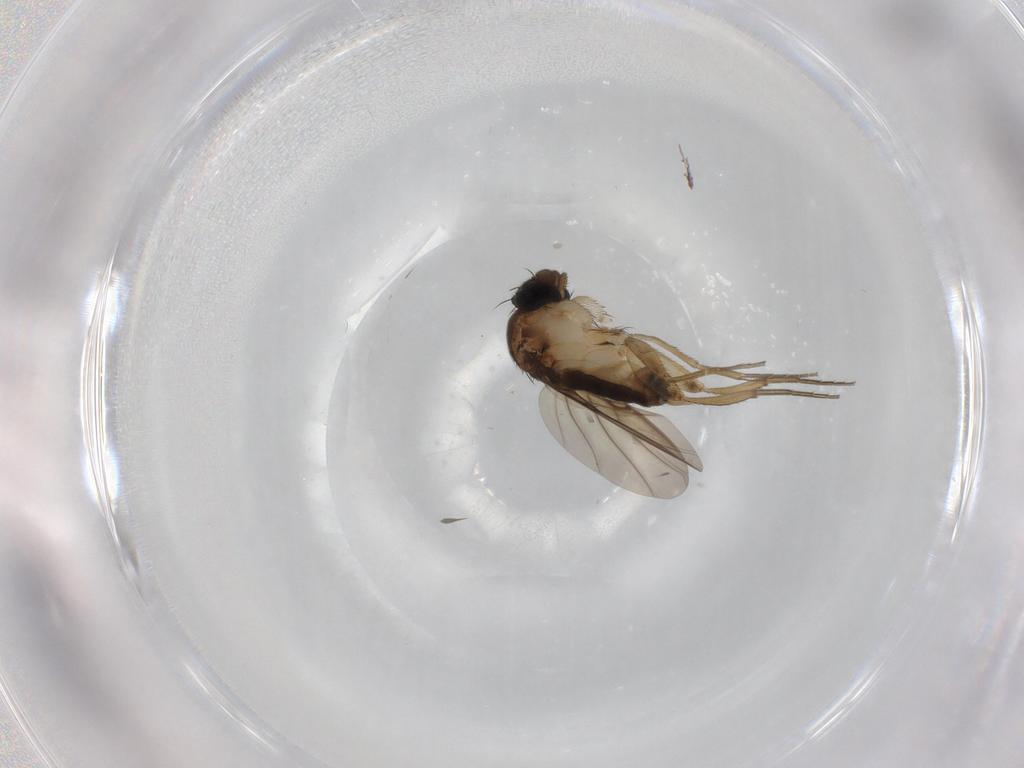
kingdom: Animalia
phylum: Arthropoda
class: Insecta
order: Diptera
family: Phoridae
